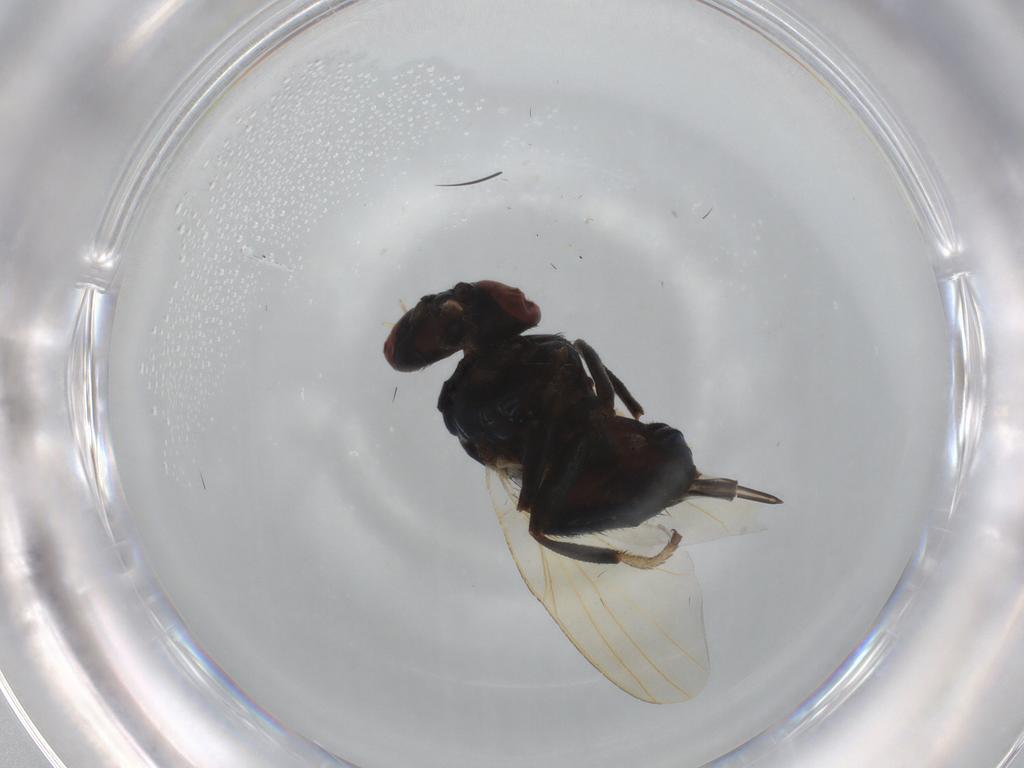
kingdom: Animalia
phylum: Arthropoda
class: Insecta
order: Diptera
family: Lonchaeidae
